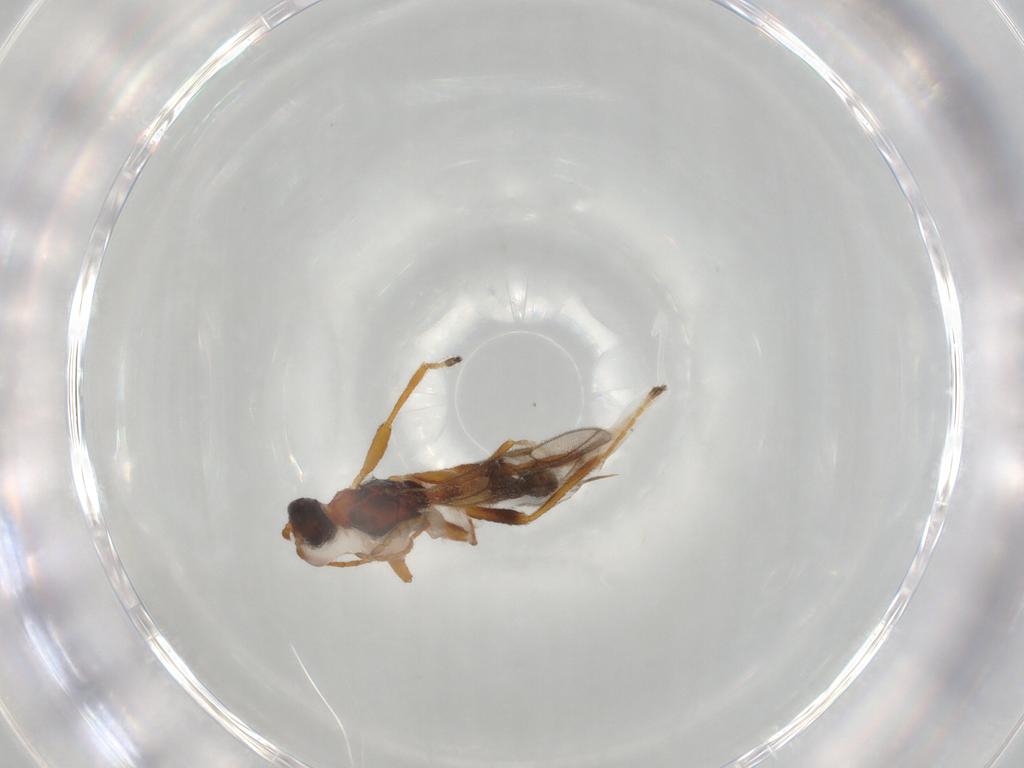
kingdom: Animalia
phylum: Arthropoda
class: Insecta
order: Hymenoptera
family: Braconidae
